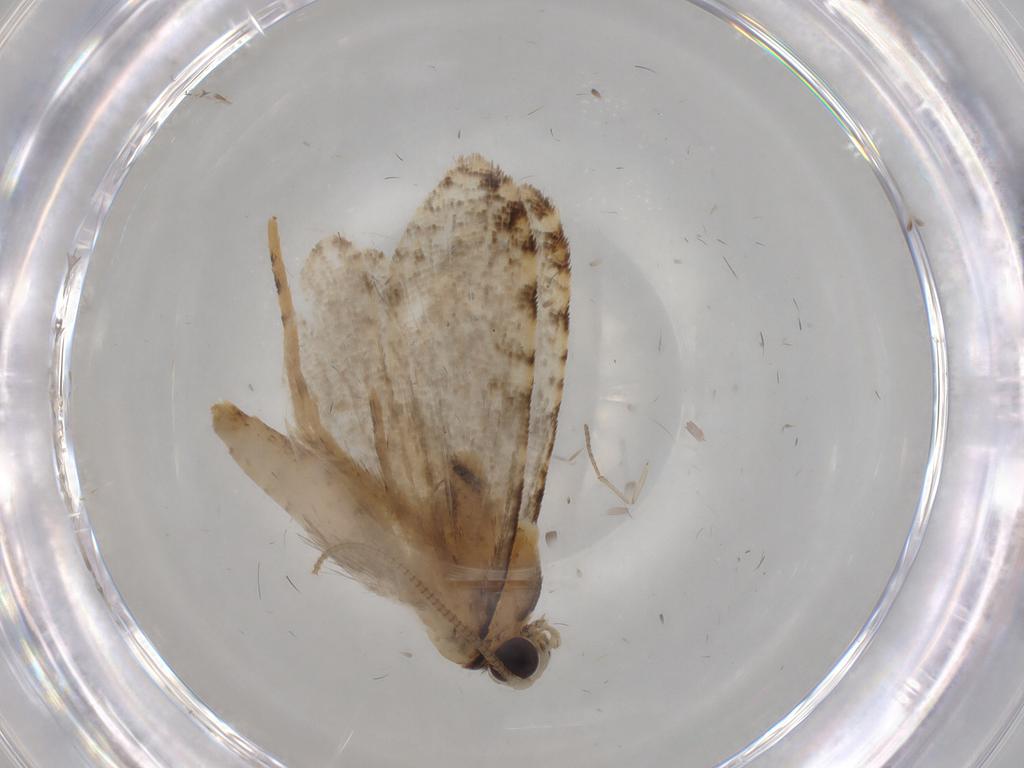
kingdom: Animalia
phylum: Arthropoda
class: Insecta
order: Lepidoptera
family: Tineidae
